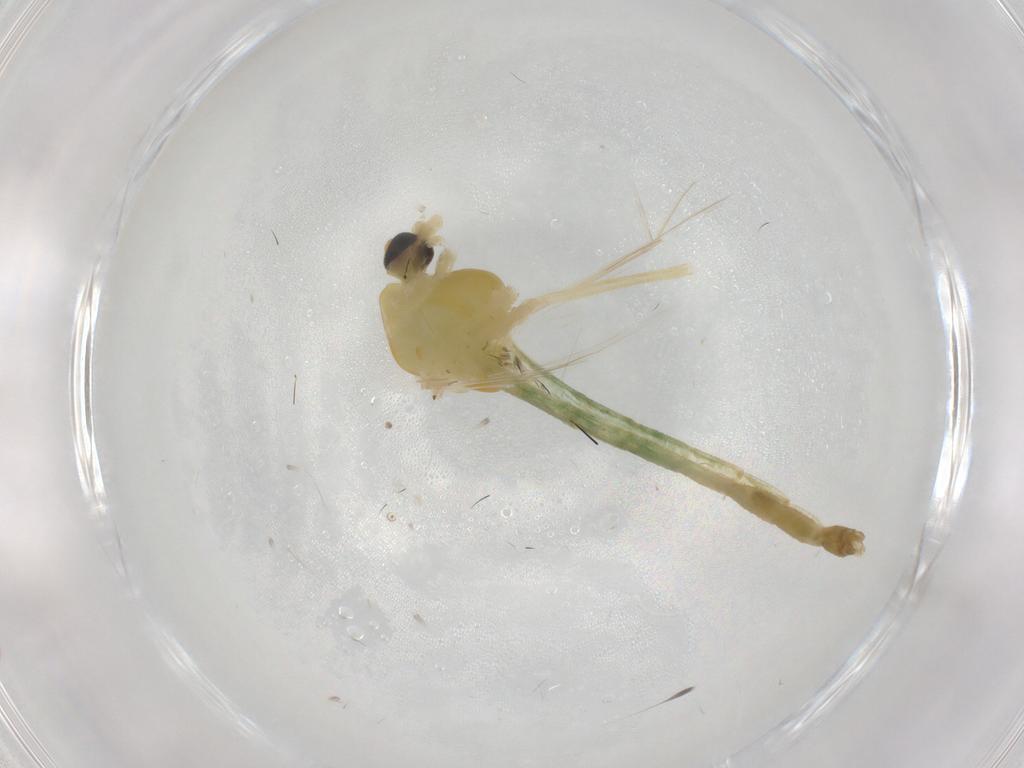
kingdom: Animalia
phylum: Arthropoda
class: Insecta
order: Diptera
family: Chironomidae
